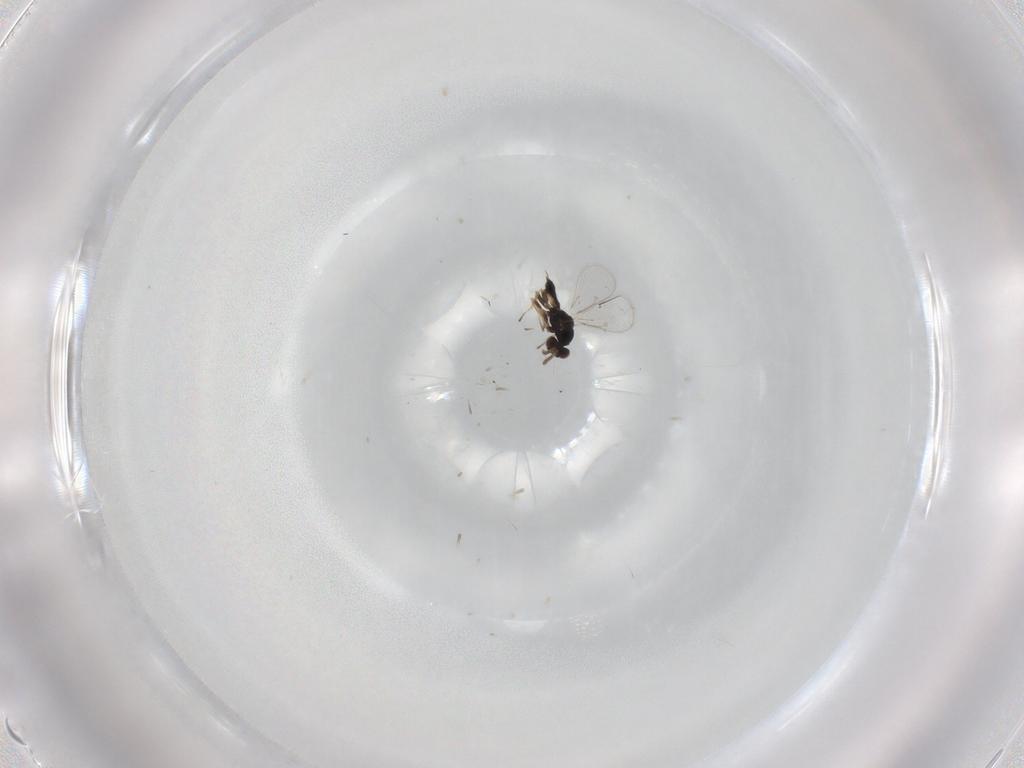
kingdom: Animalia
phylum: Arthropoda
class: Insecta
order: Hymenoptera
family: Eulophidae
